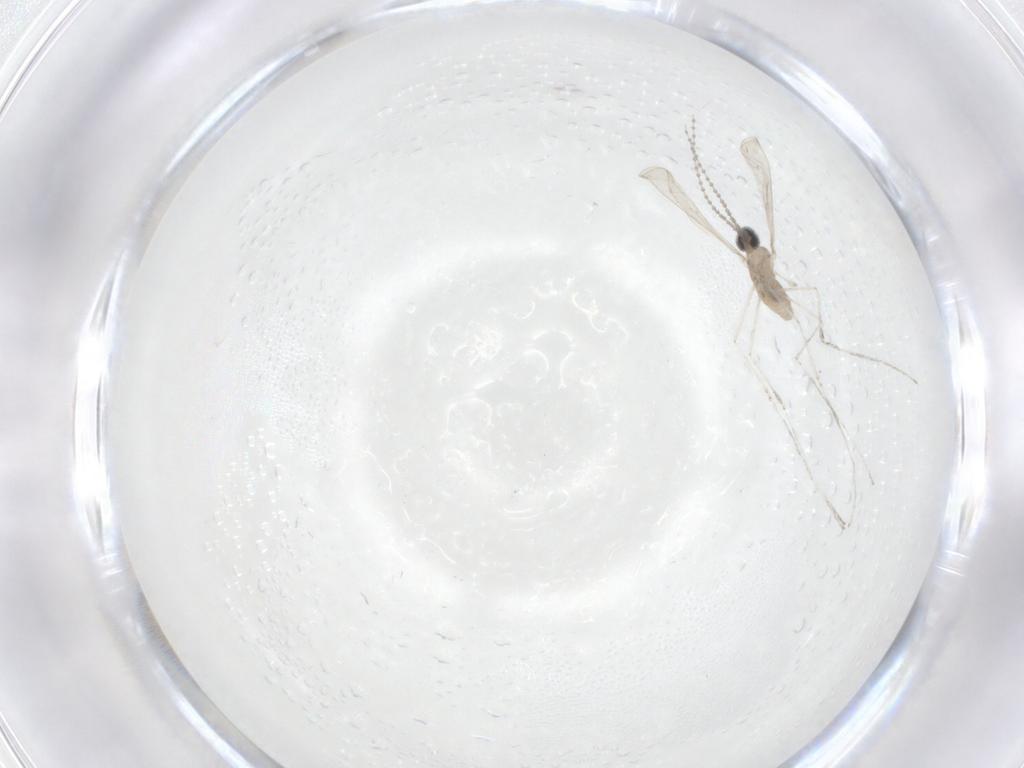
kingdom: Animalia
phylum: Arthropoda
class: Insecta
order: Diptera
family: Cecidomyiidae
